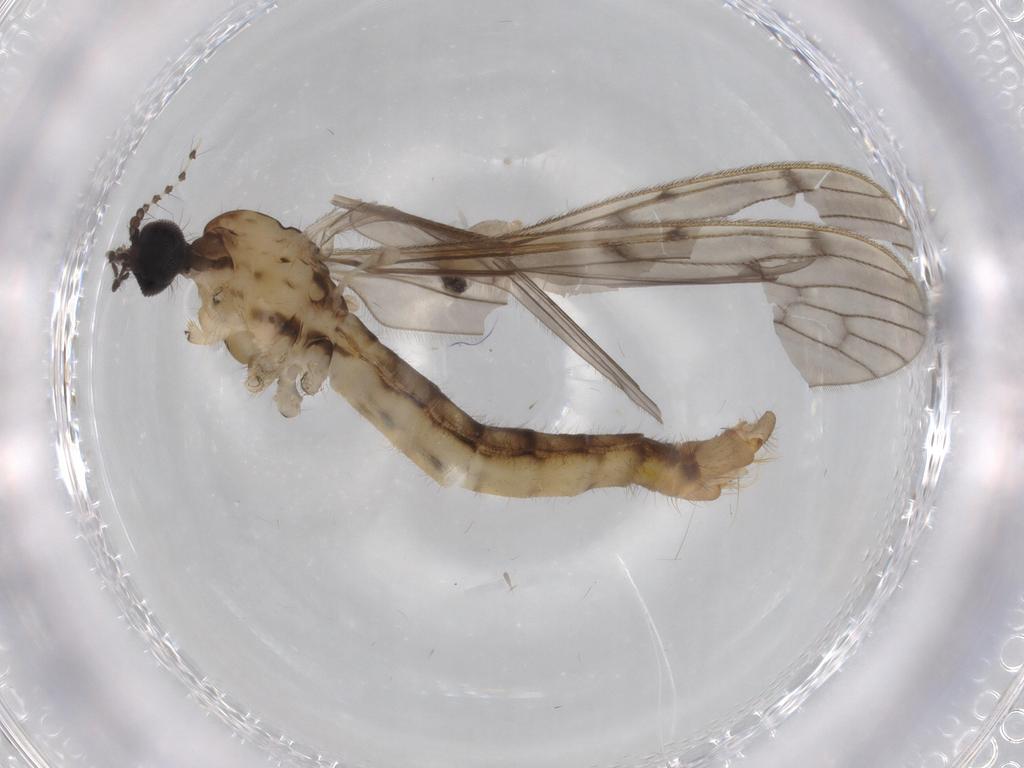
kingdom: Animalia
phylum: Arthropoda
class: Insecta
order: Diptera
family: Limoniidae
